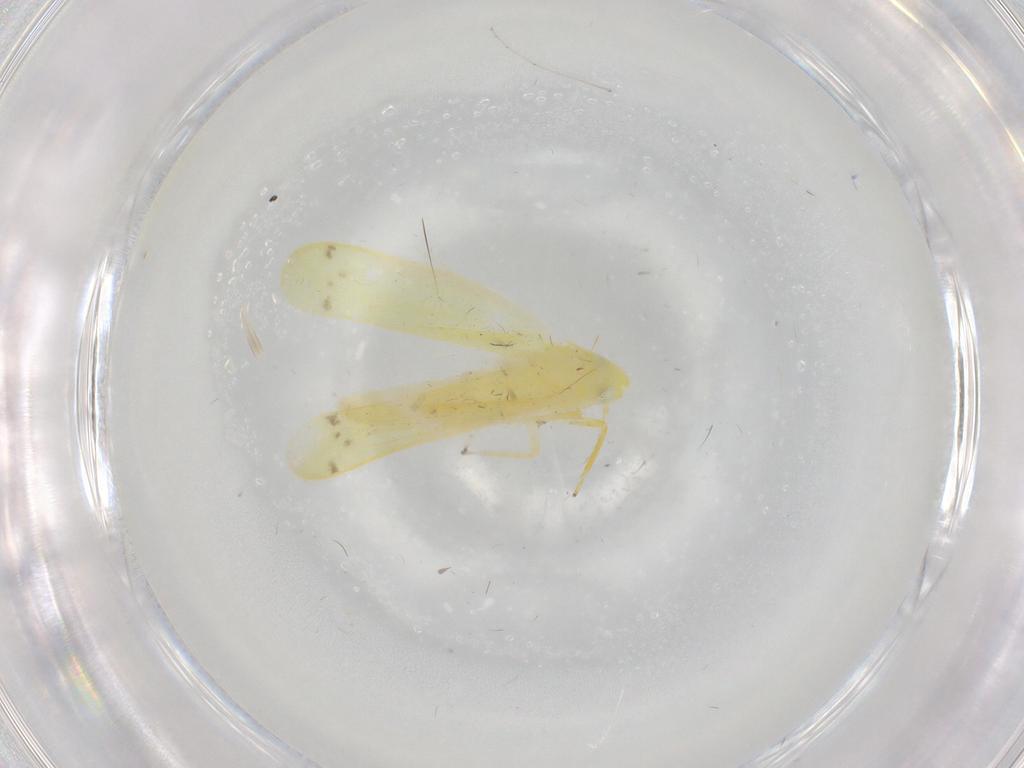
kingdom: Animalia
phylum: Arthropoda
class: Insecta
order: Hemiptera
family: Cicadellidae
